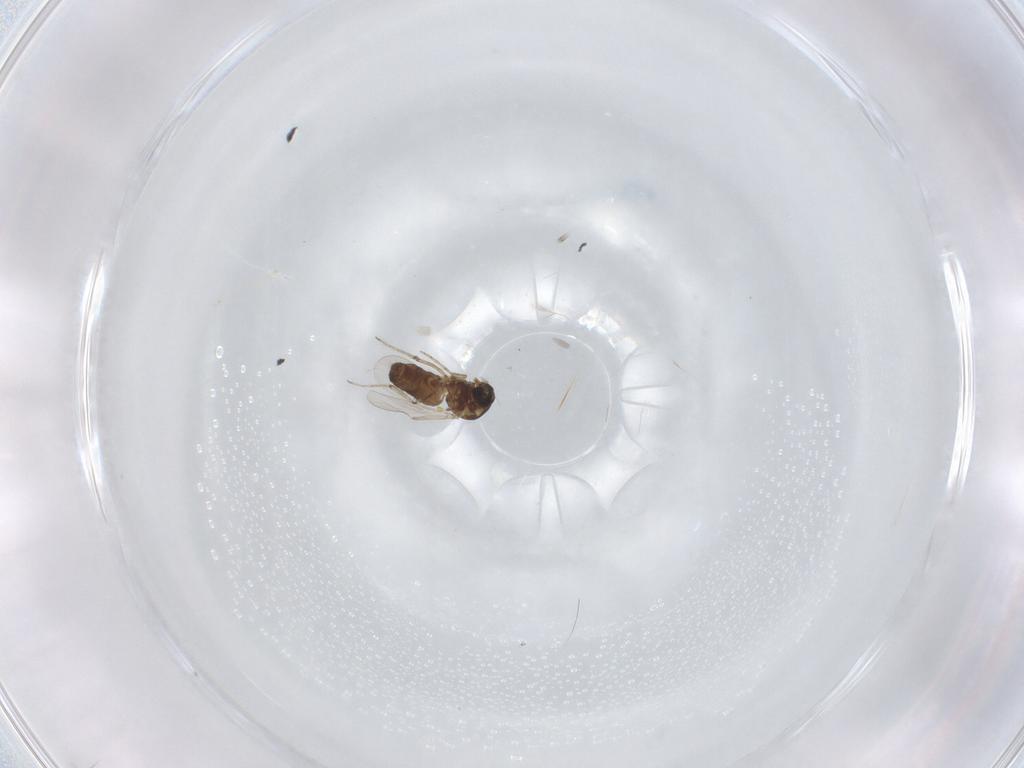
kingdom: Animalia
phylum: Arthropoda
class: Insecta
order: Diptera
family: Ceratopogonidae
